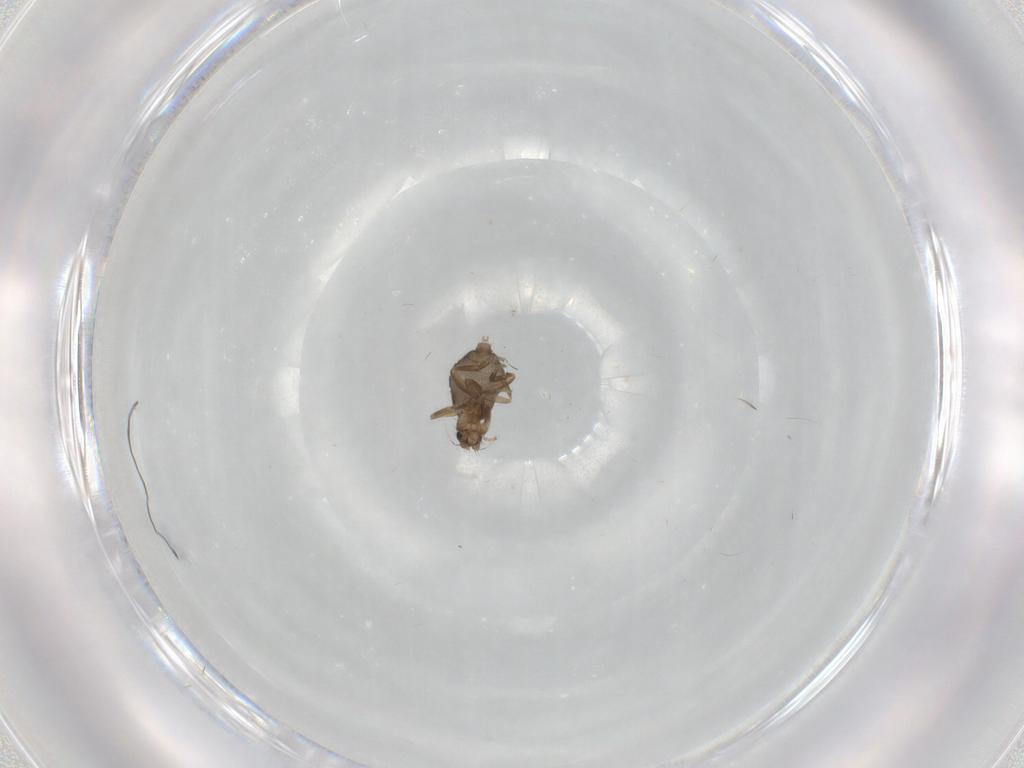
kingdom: Animalia
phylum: Arthropoda
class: Insecta
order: Diptera
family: Phoridae
